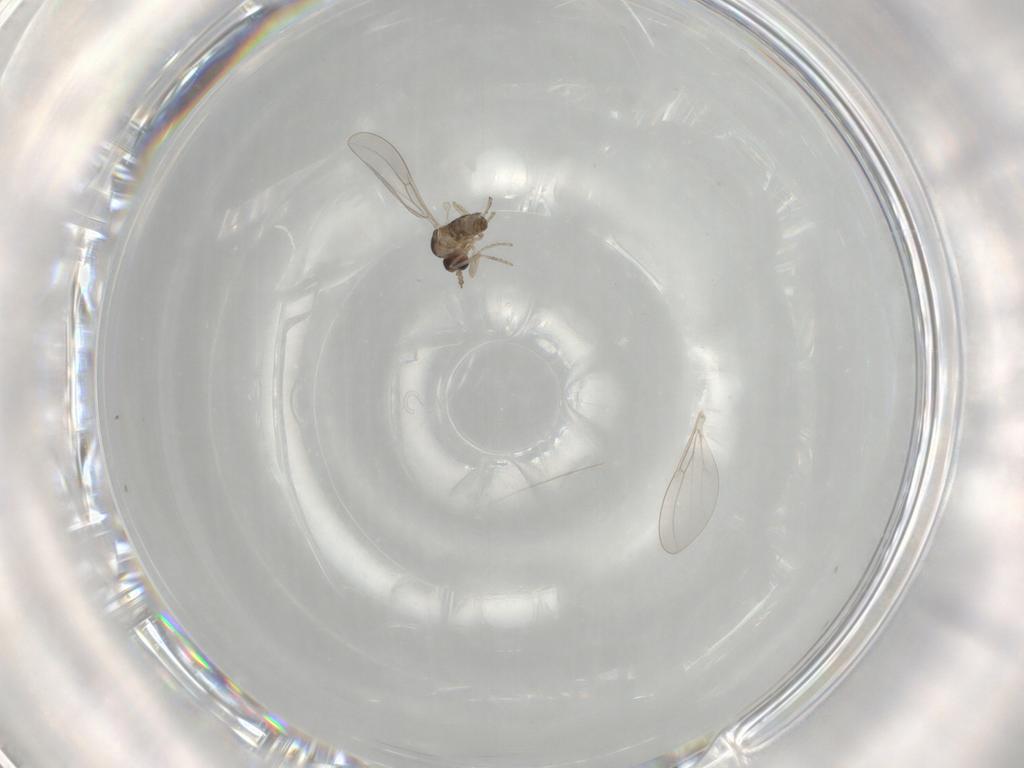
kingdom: Animalia
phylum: Arthropoda
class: Insecta
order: Diptera
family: Cecidomyiidae
